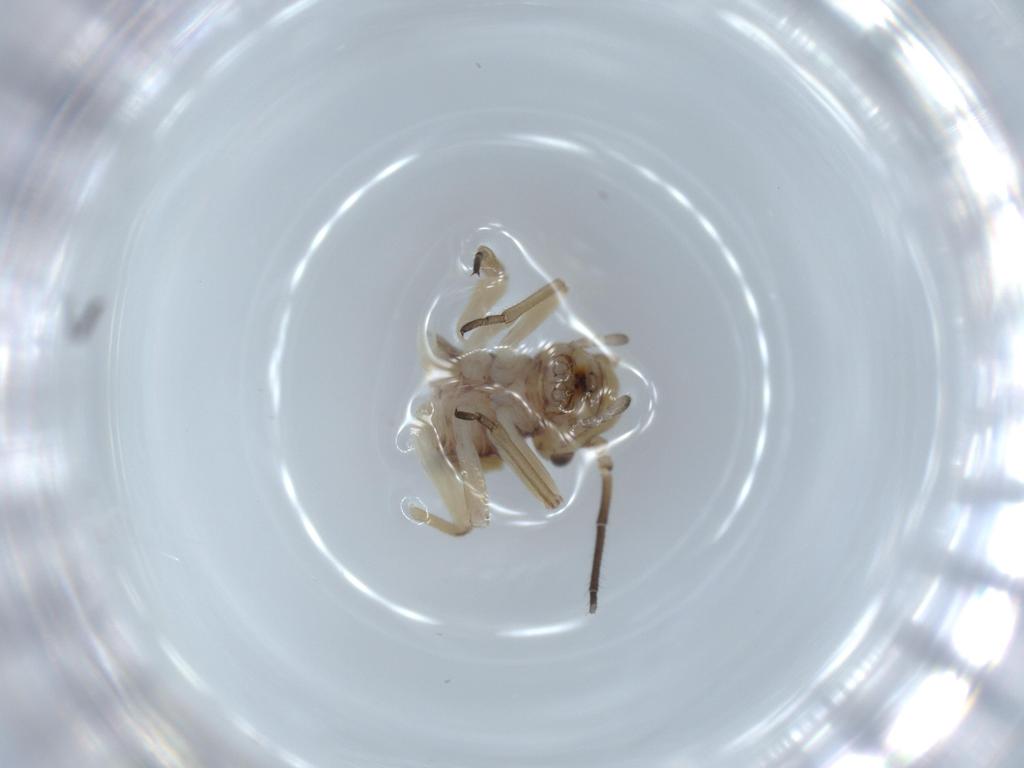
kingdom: Animalia
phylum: Arthropoda
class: Insecta
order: Psocodea
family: Psocidae
